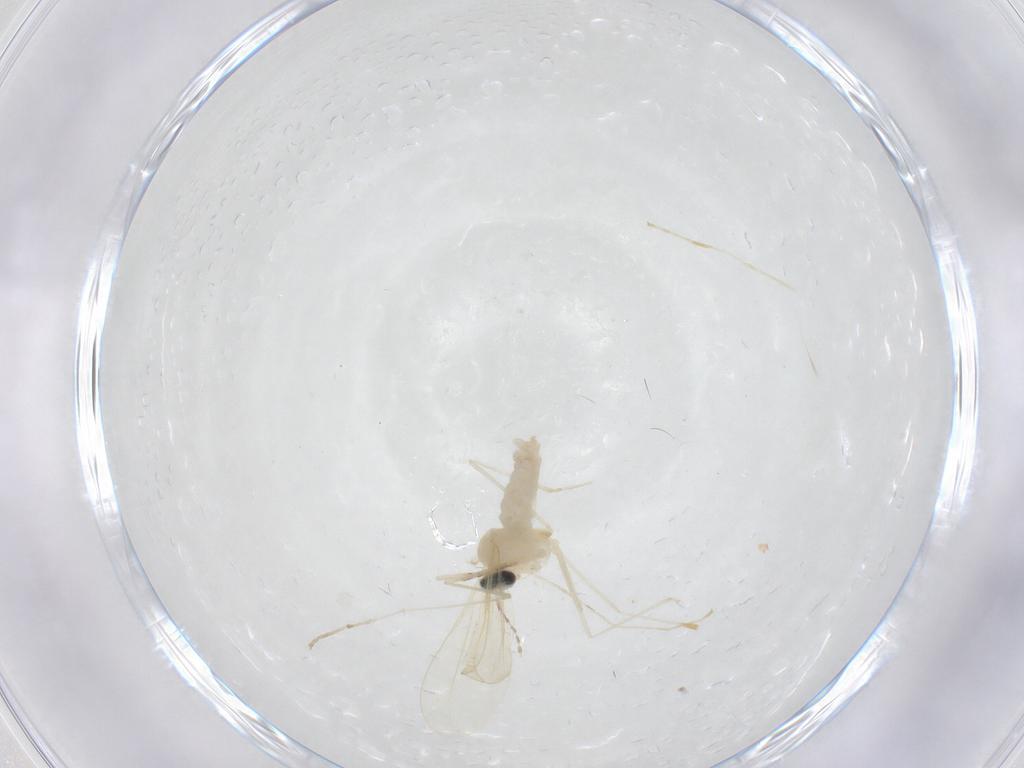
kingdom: Animalia
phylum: Arthropoda
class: Insecta
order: Diptera
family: Cecidomyiidae
